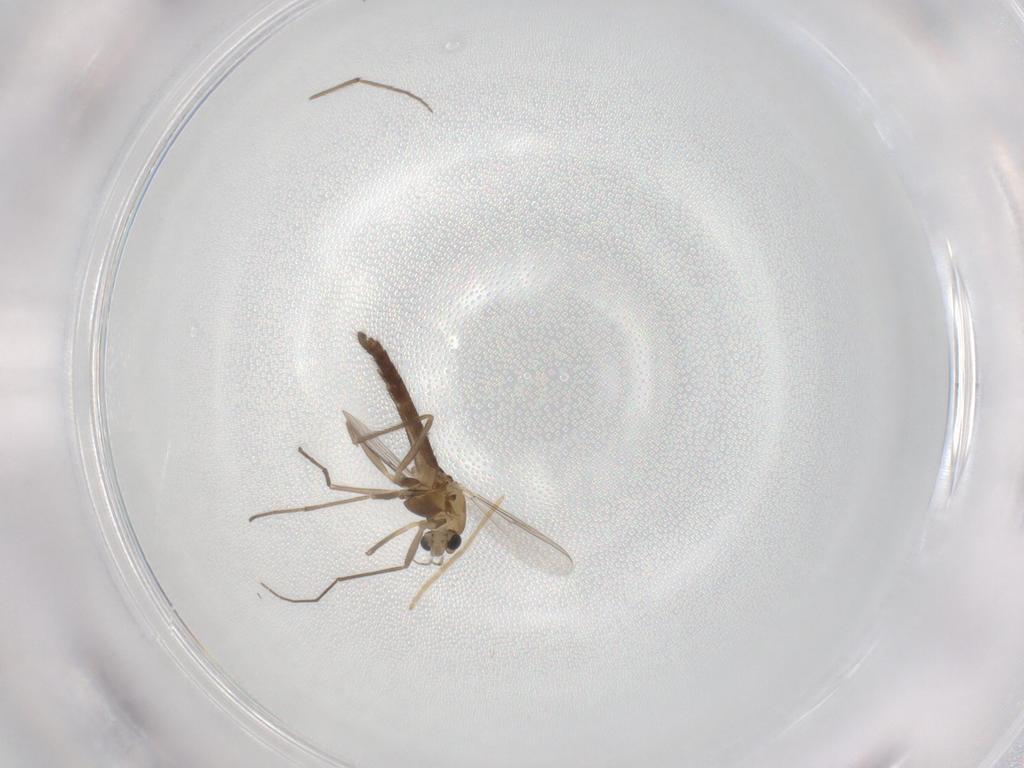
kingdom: Animalia
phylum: Arthropoda
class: Insecta
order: Diptera
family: Chironomidae
